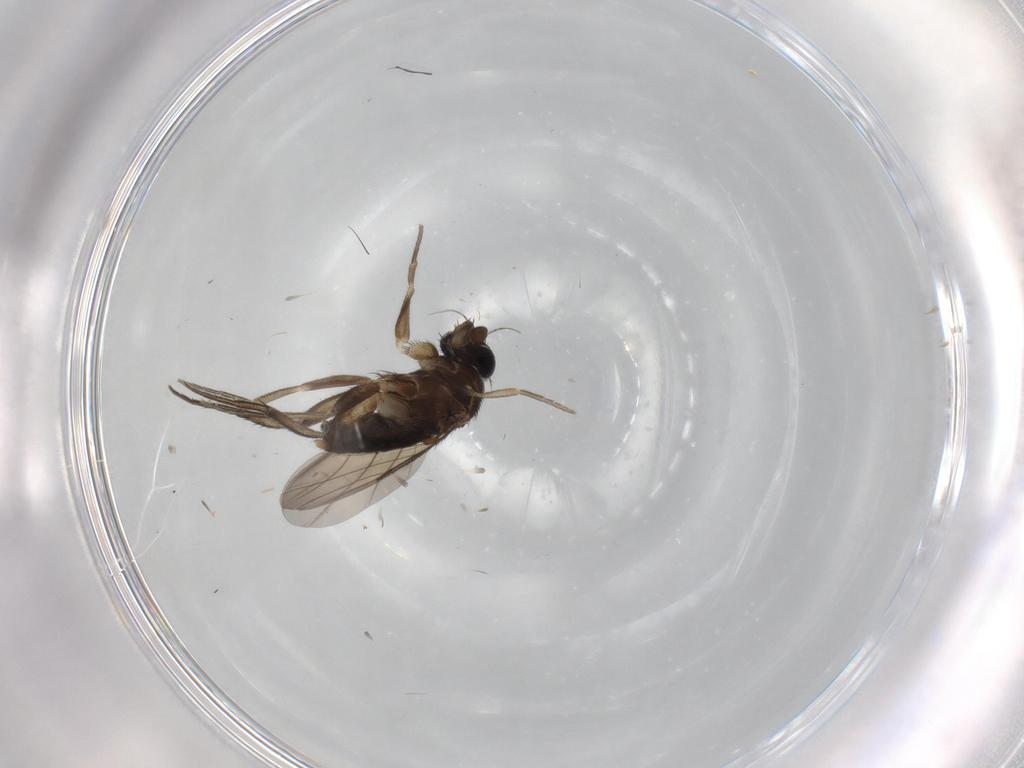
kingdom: Animalia
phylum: Arthropoda
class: Insecta
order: Diptera
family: Phoridae
